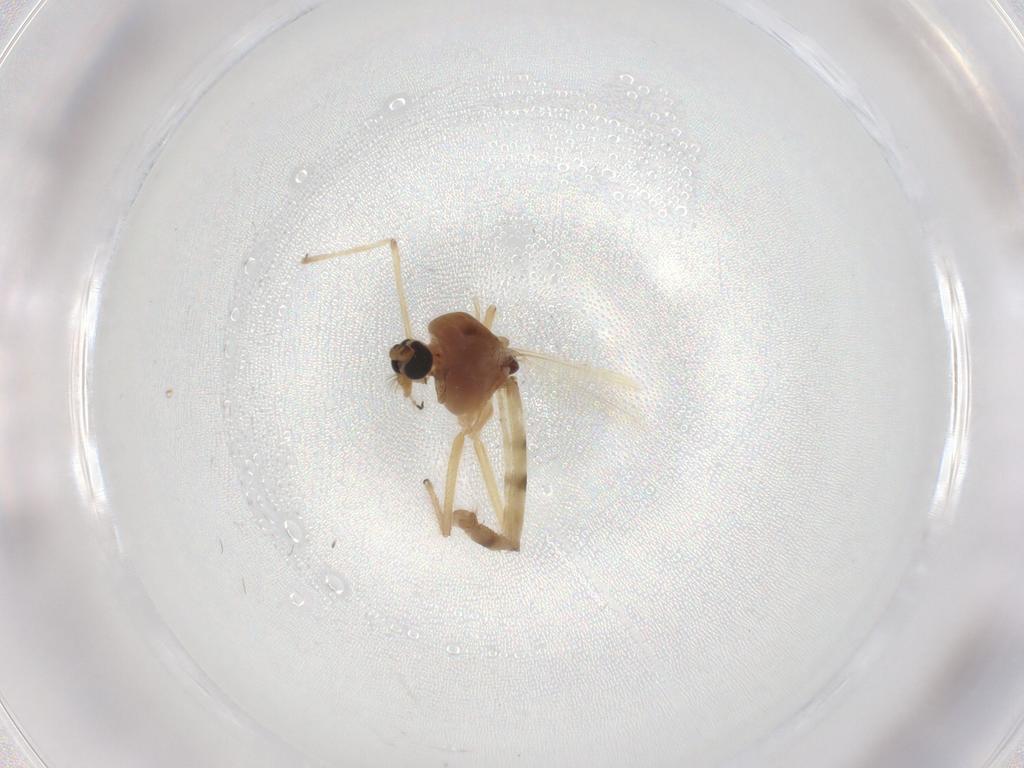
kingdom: Animalia
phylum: Arthropoda
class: Insecta
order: Diptera
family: Chironomidae
